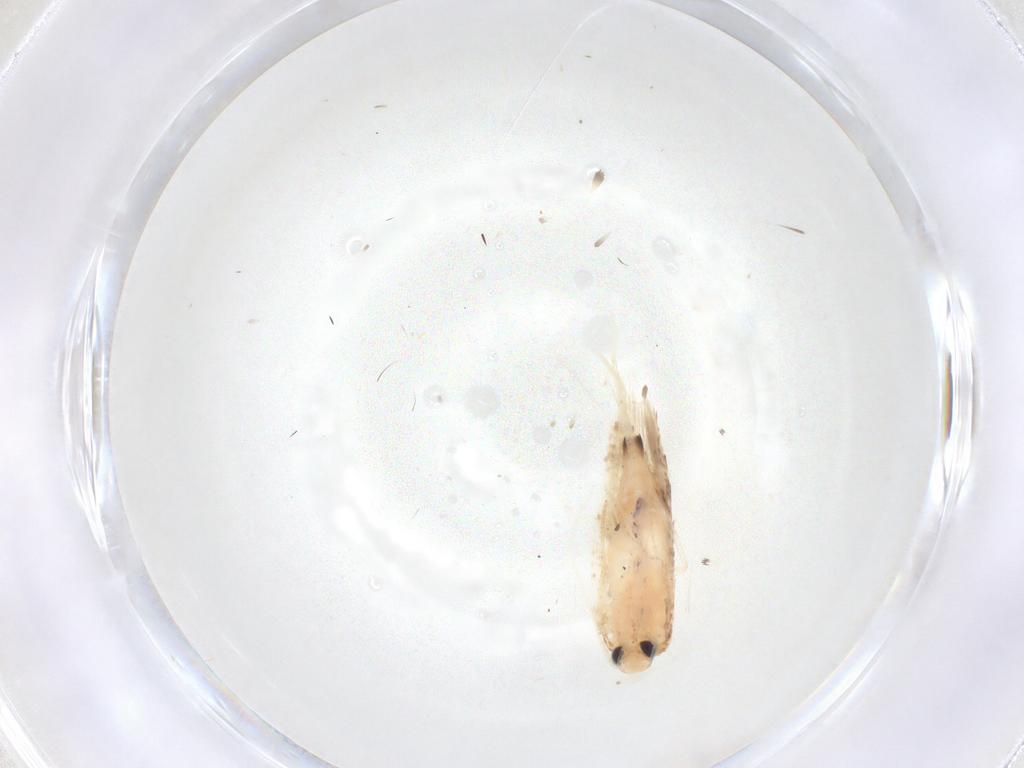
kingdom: Animalia
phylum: Arthropoda
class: Insecta
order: Lepidoptera
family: Gelechiidae
